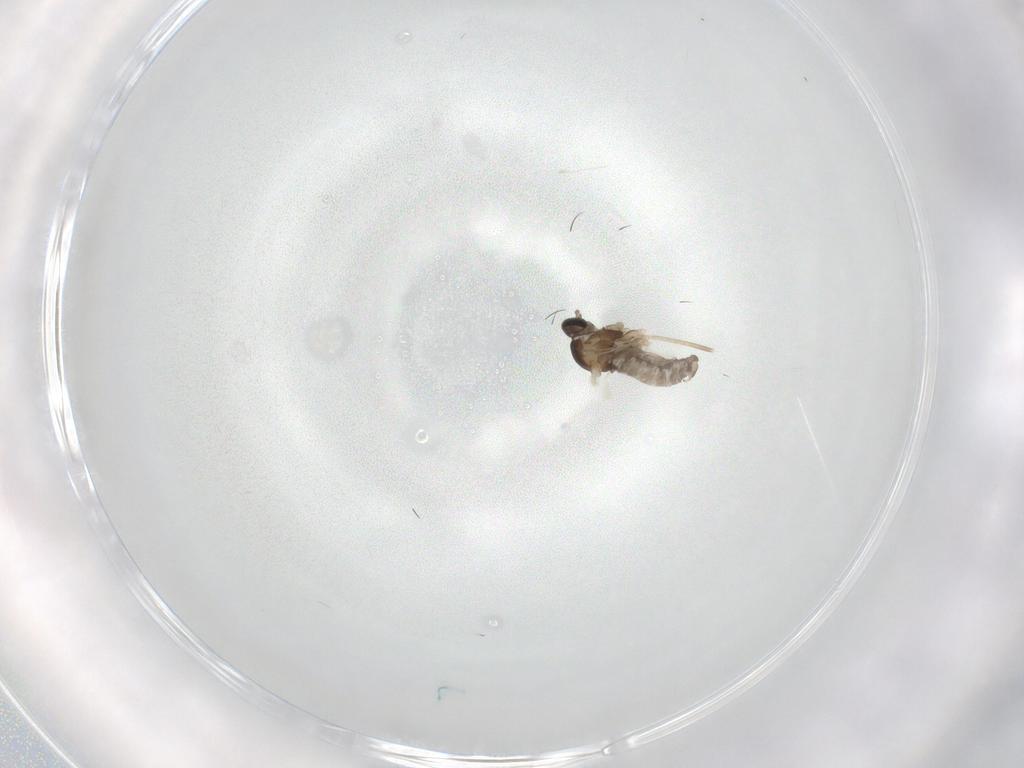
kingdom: Animalia
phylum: Arthropoda
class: Insecta
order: Diptera
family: Cecidomyiidae
